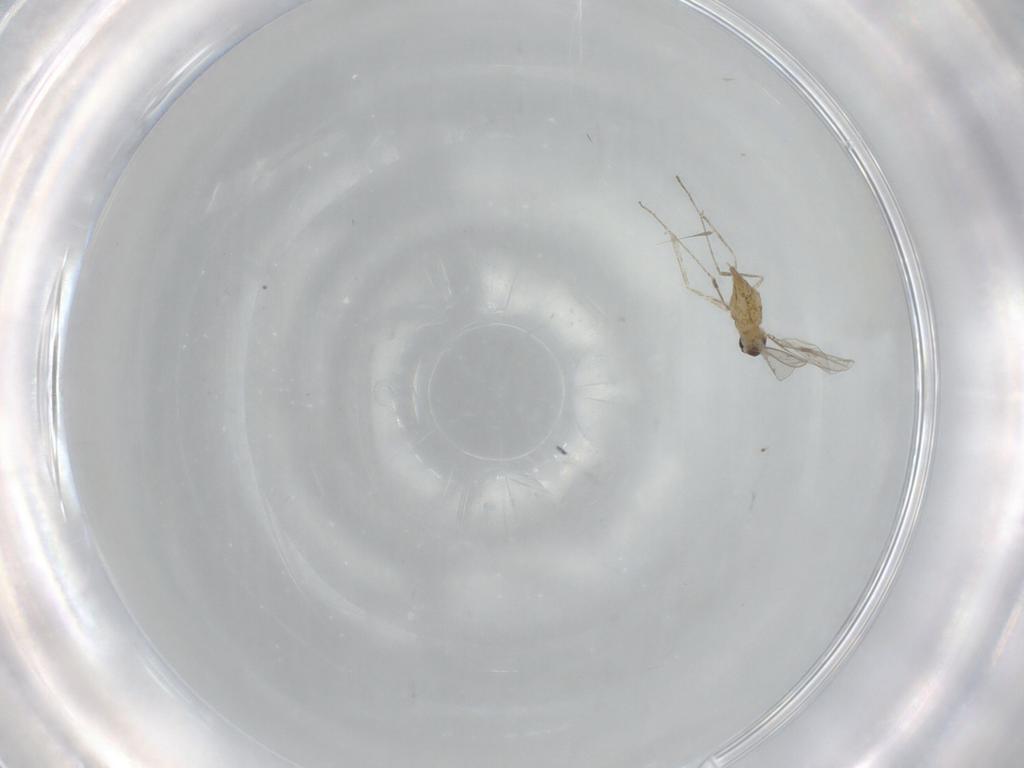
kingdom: Animalia
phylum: Arthropoda
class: Insecta
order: Diptera
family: Cecidomyiidae
